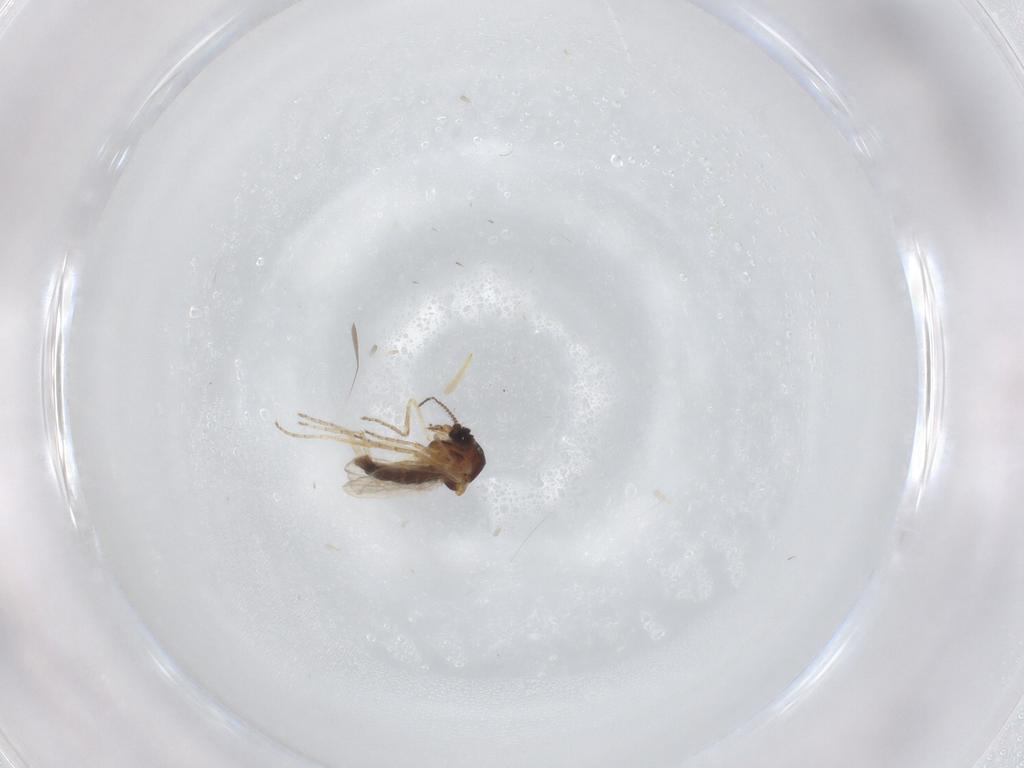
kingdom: Animalia
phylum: Arthropoda
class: Insecta
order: Diptera
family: Ceratopogonidae
